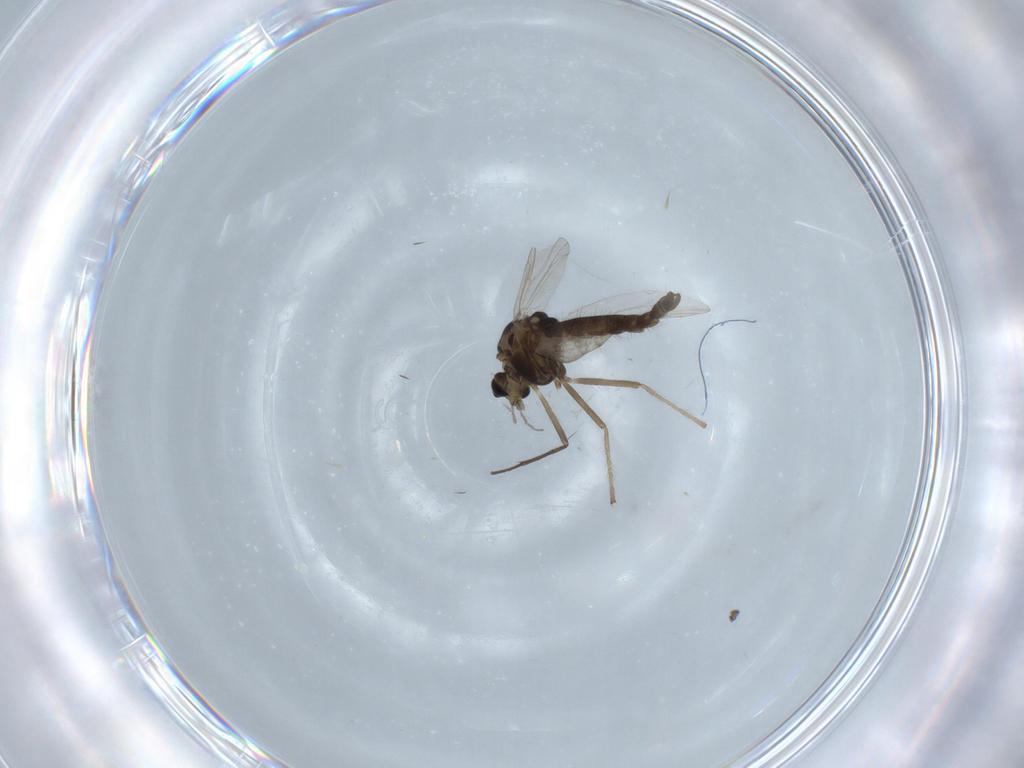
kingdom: Animalia
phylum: Arthropoda
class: Insecta
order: Diptera
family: Chironomidae
